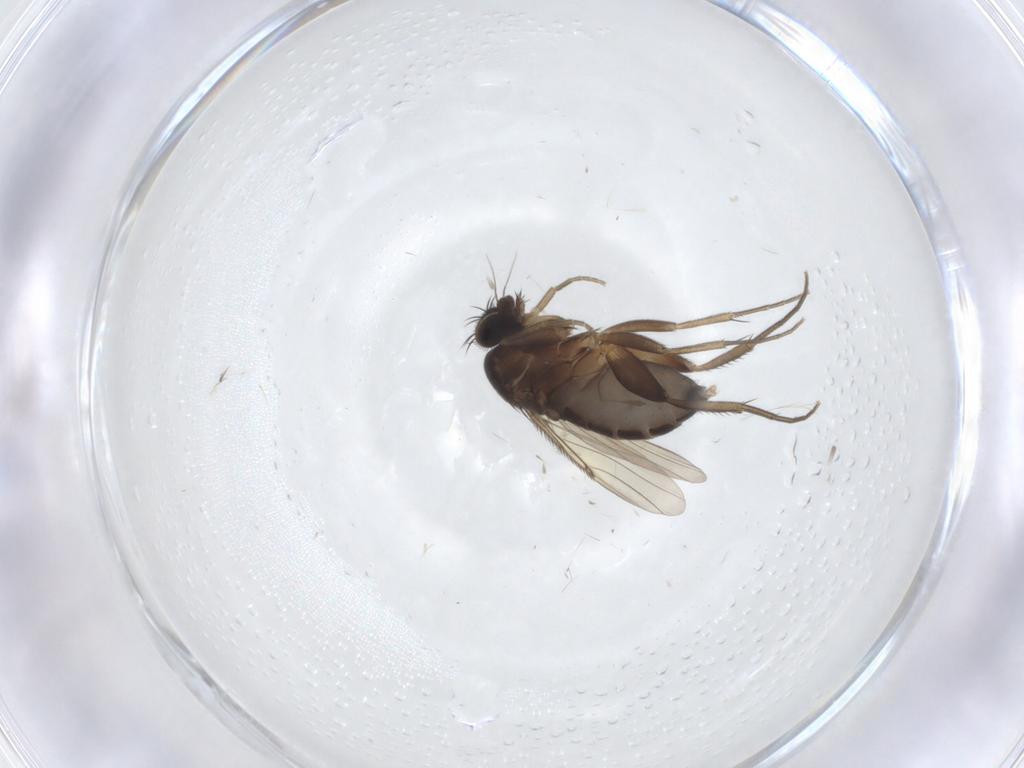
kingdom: Animalia
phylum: Arthropoda
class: Insecta
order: Diptera
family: Phoridae
